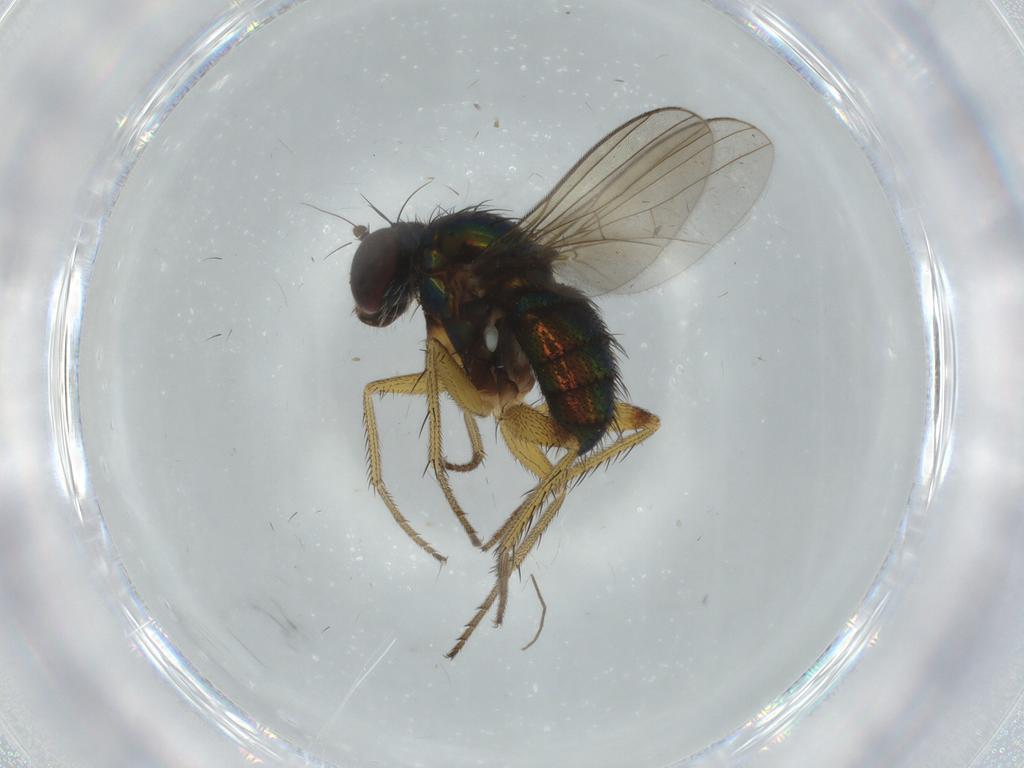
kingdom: Animalia
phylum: Arthropoda
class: Insecta
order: Diptera
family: Dolichopodidae
